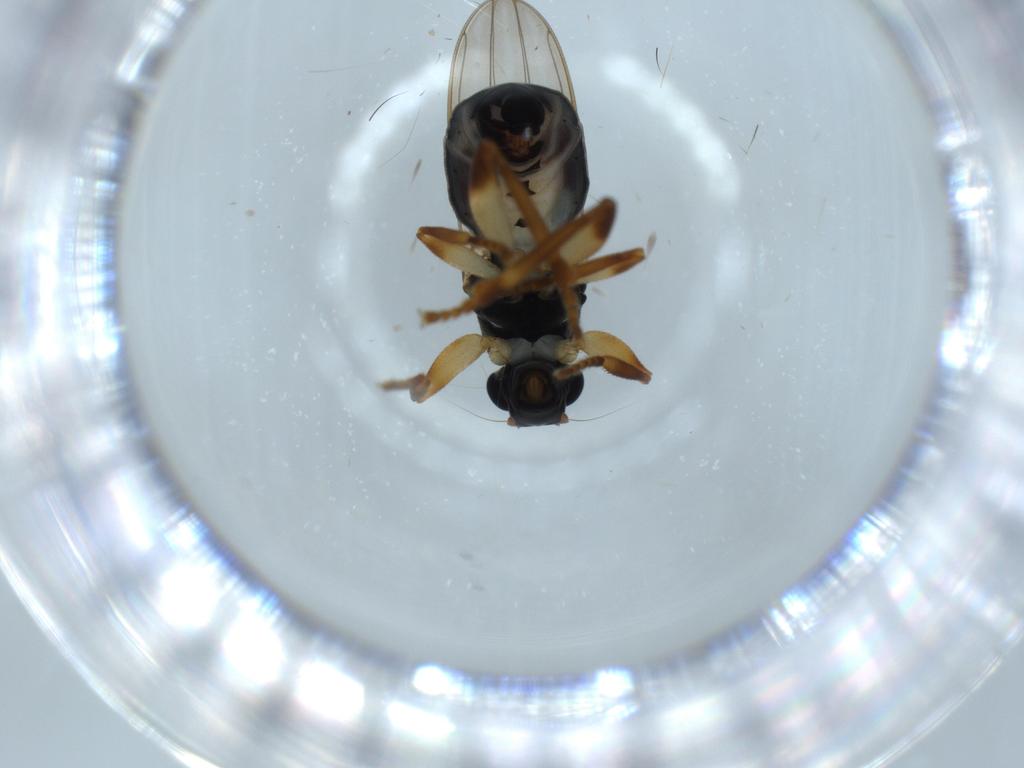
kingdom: Animalia
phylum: Arthropoda
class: Insecta
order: Diptera
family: Sphaeroceridae
